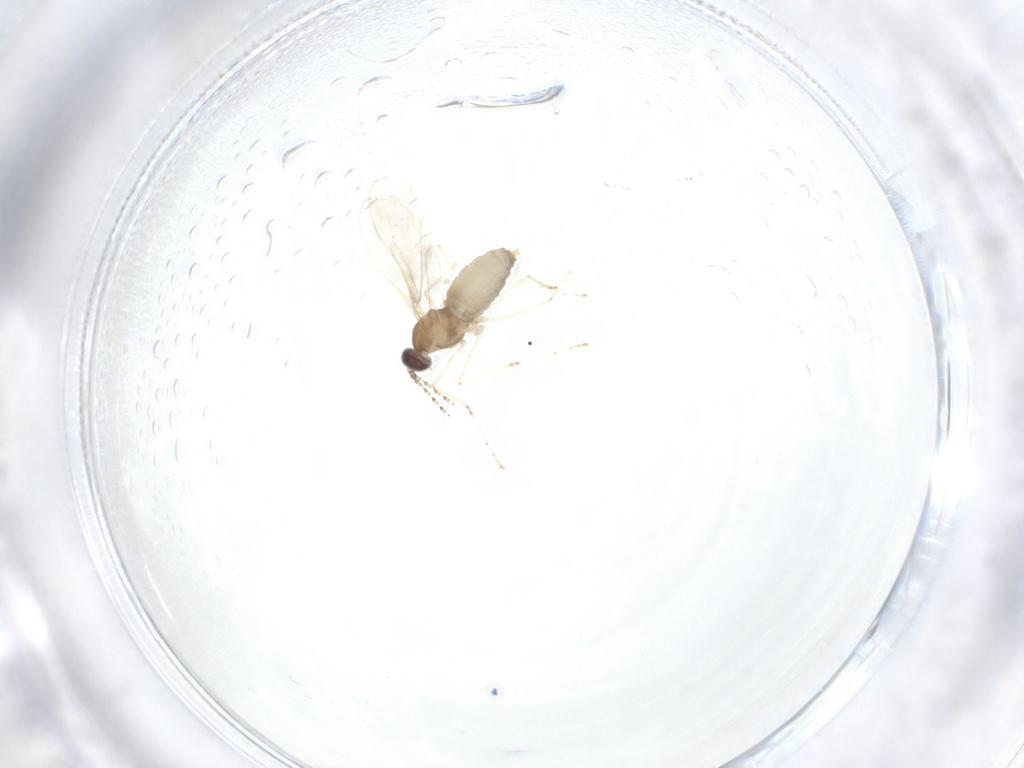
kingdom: Animalia
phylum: Arthropoda
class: Insecta
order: Diptera
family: Cecidomyiidae
